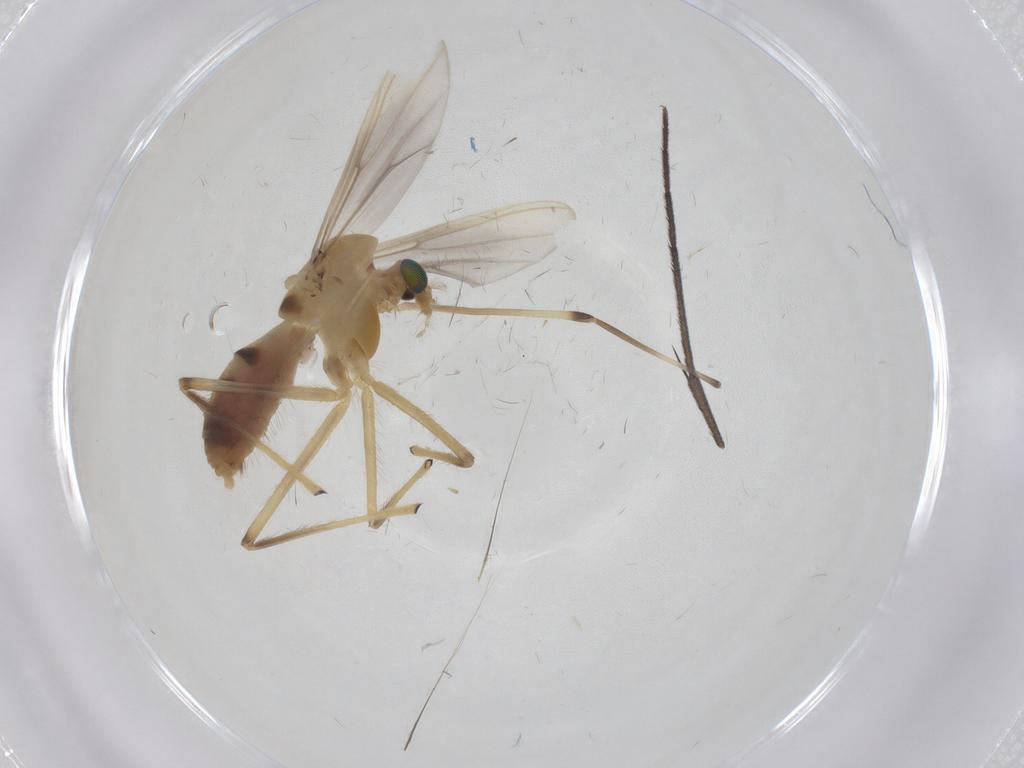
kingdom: Animalia
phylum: Arthropoda
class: Insecta
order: Diptera
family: Chironomidae
